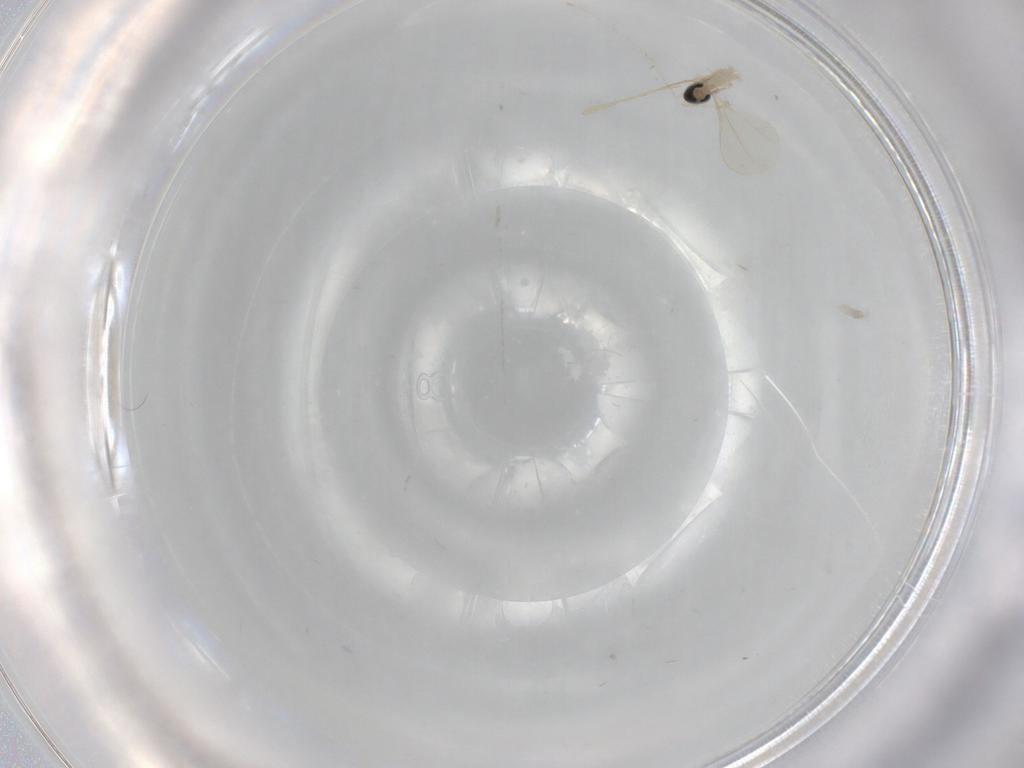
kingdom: Animalia
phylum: Arthropoda
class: Insecta
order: Diptera
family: Cecidomyiidae
